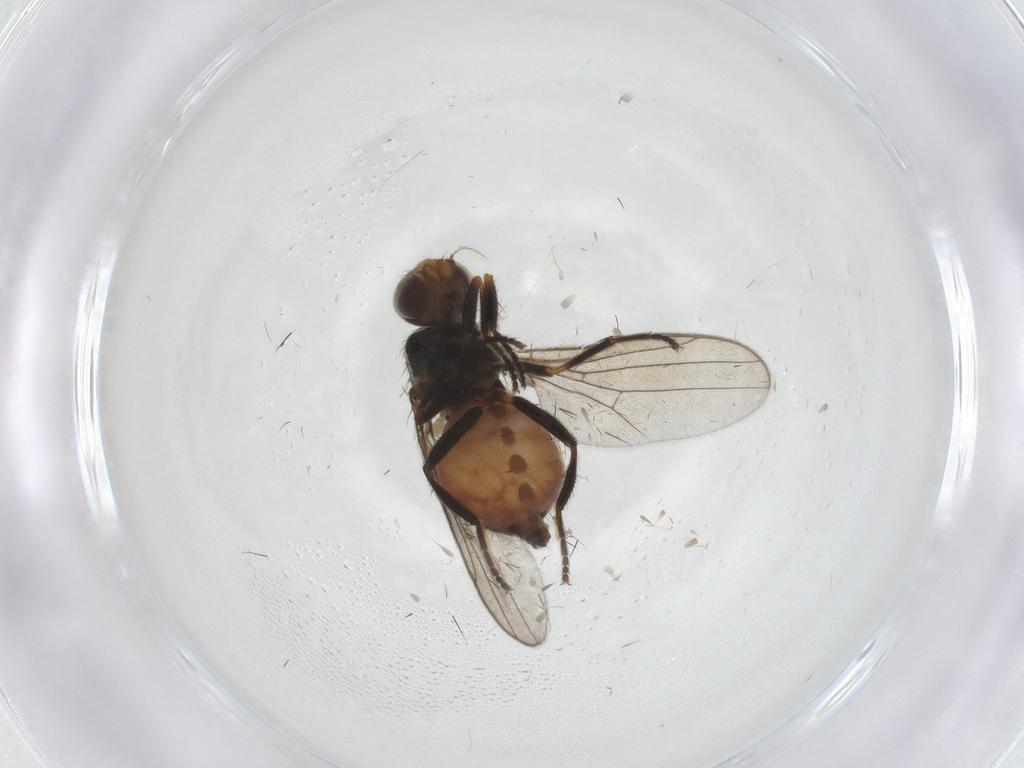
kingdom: Animalia
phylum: Arthropoda
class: Insecta
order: Diptera
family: Chloropidae
